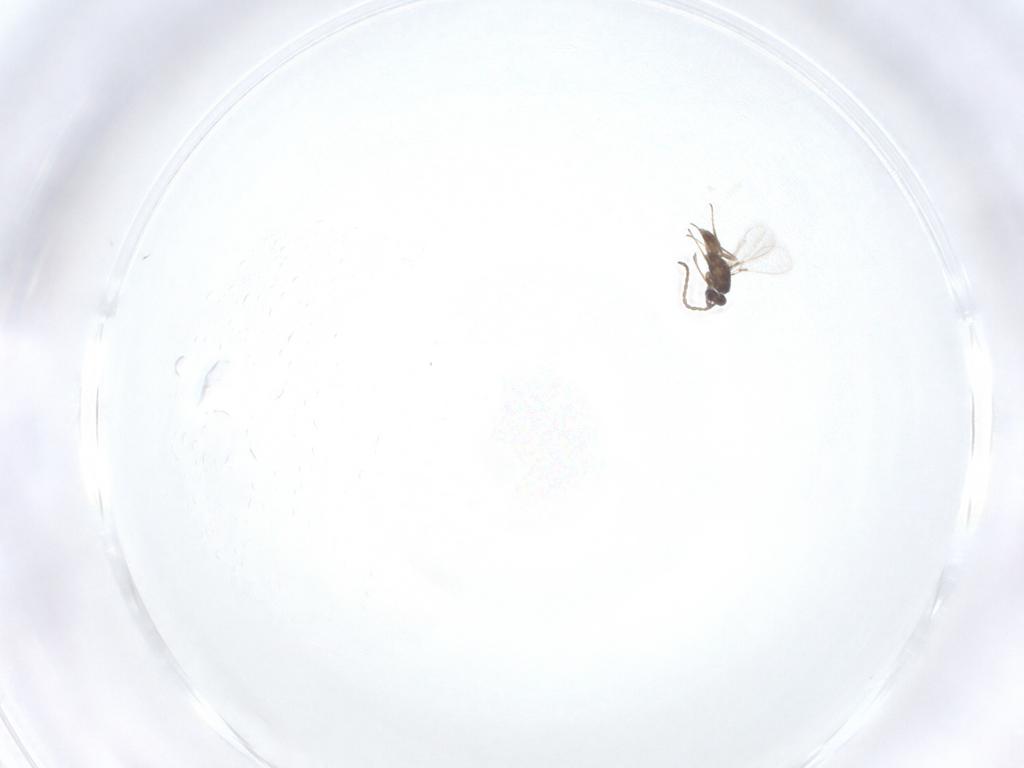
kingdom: Animalia
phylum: Arthropoda
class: Insecta
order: Hymenoptera
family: Mymaridae
